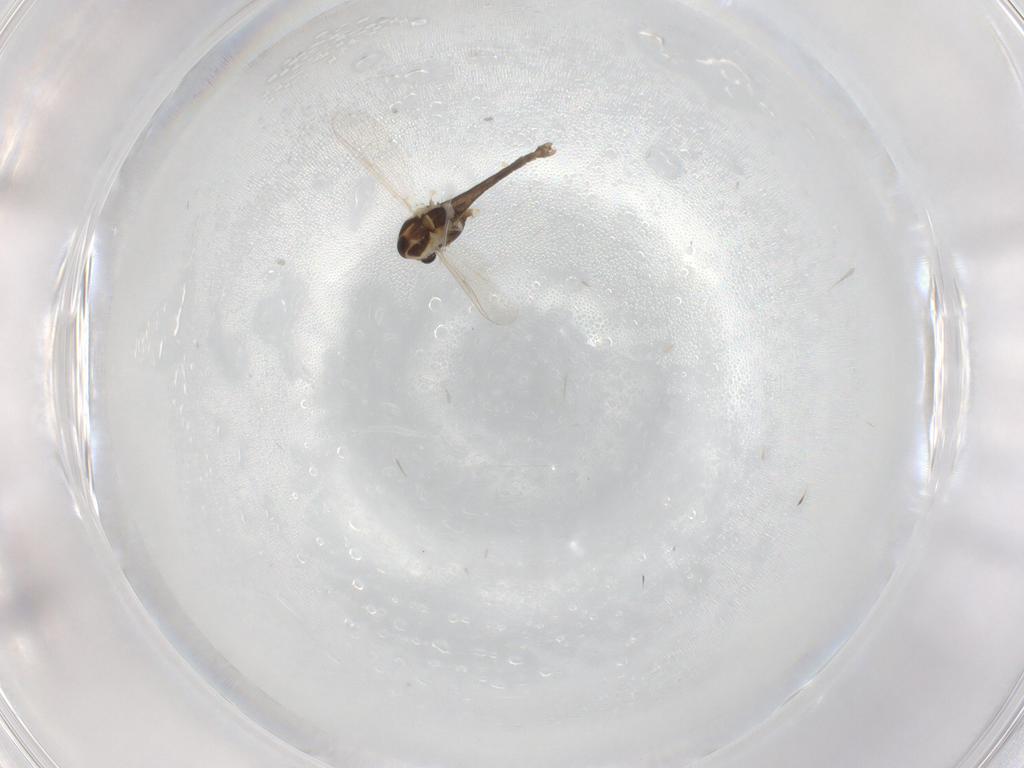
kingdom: Animalia
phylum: Arthropoda
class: Insecta
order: Diptera
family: Chironomidae
